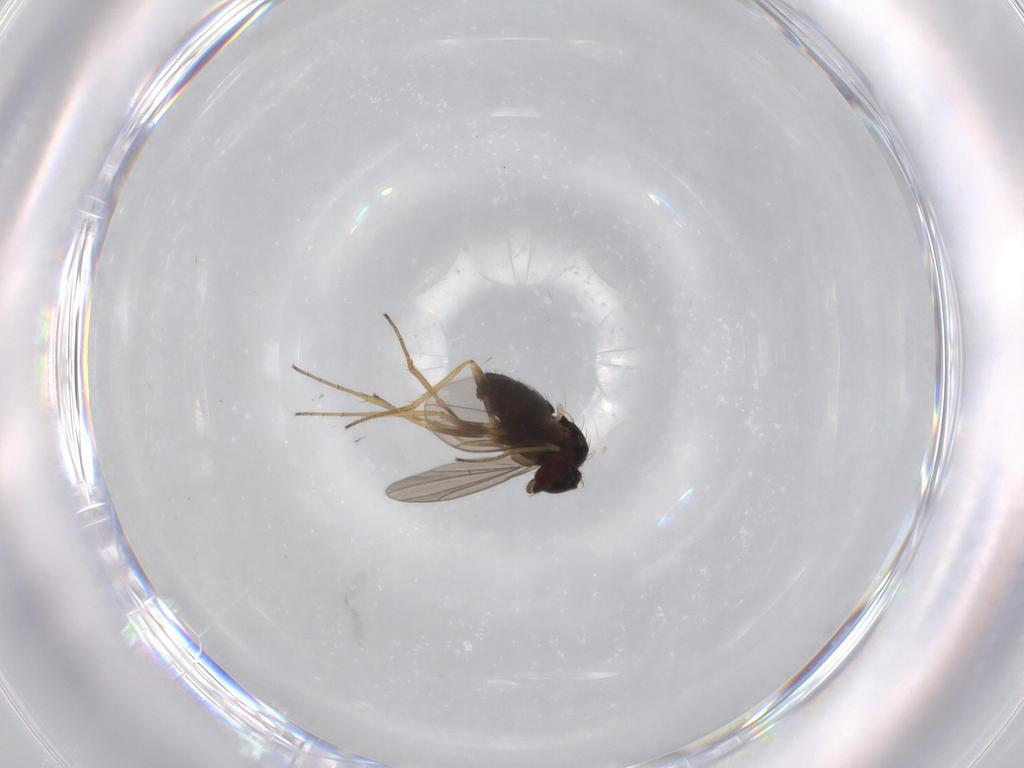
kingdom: Animalia
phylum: Arthropoda
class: Insecta
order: Diptera
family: Dolichopodidae
